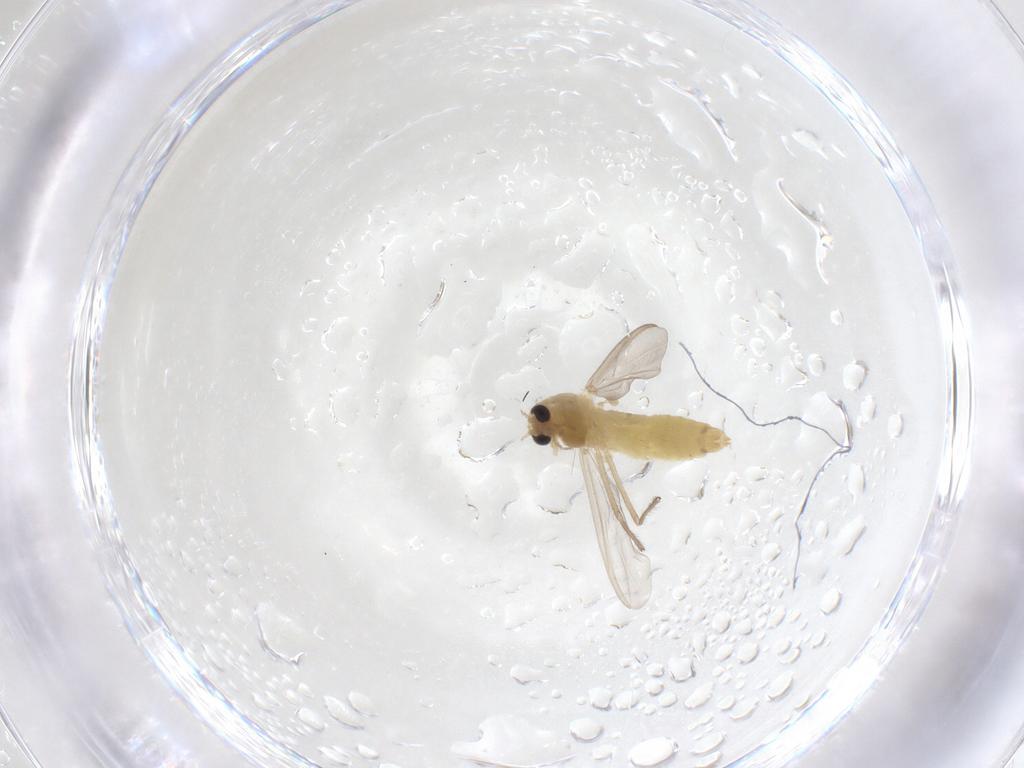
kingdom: Animalia
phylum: Arthropoda
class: Insecta
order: Diptera
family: Chironomidae
